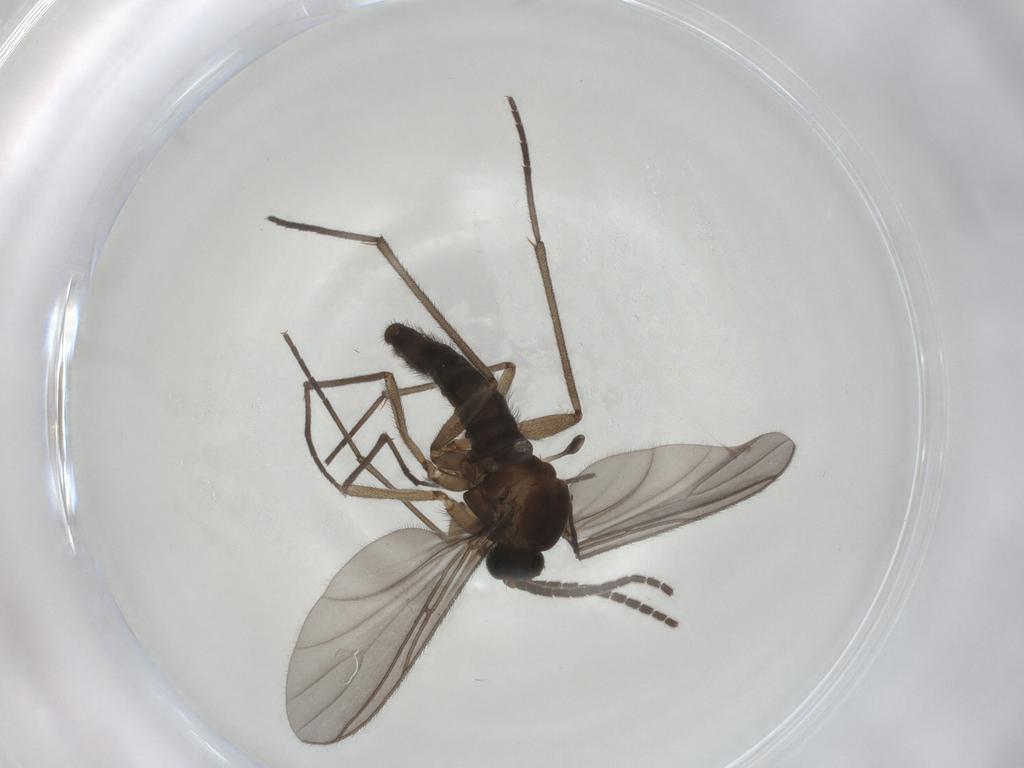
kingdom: Animalia
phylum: Arthropoda
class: Insecta
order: Diptera
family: Sciaridae
